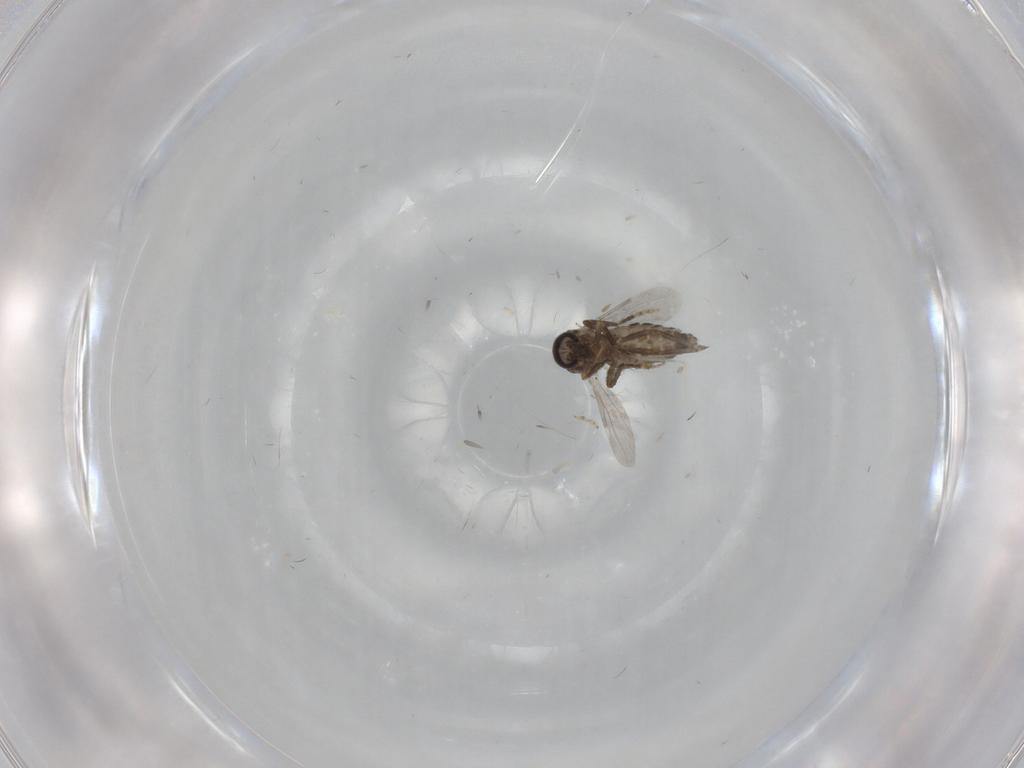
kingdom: Animalia
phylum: Arthropoda
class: Insecta
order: Diptera
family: Ceratopogonidae
